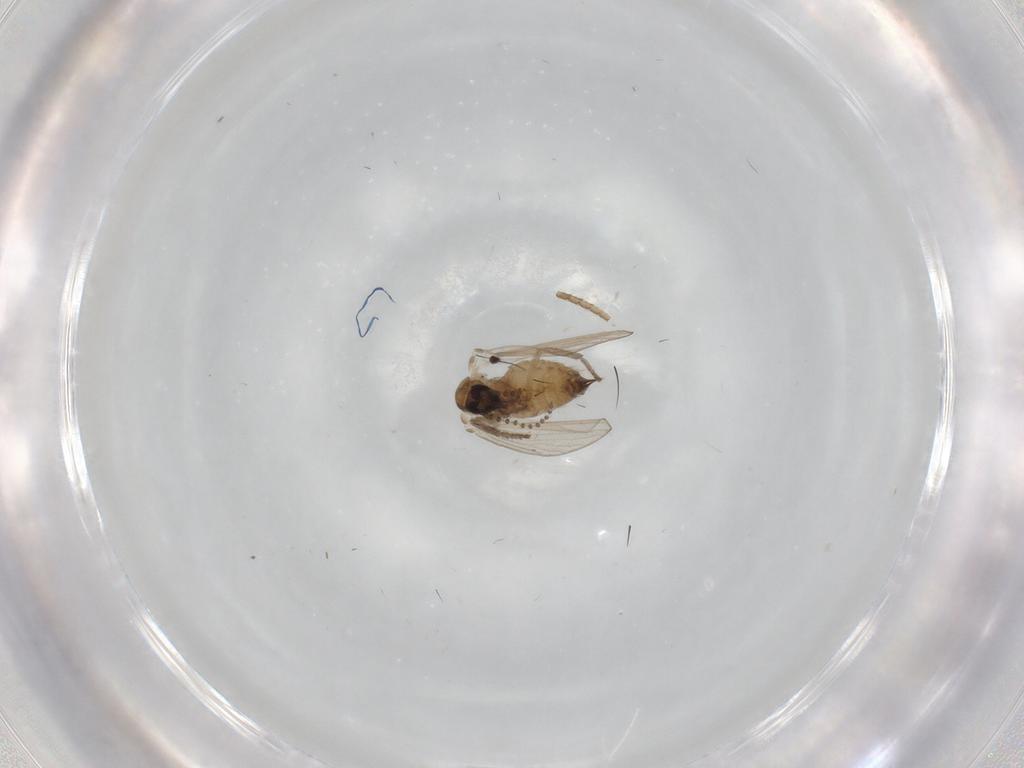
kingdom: Animalia
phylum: Arthropoda
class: Insecta
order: Diptera
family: Psychodidae
